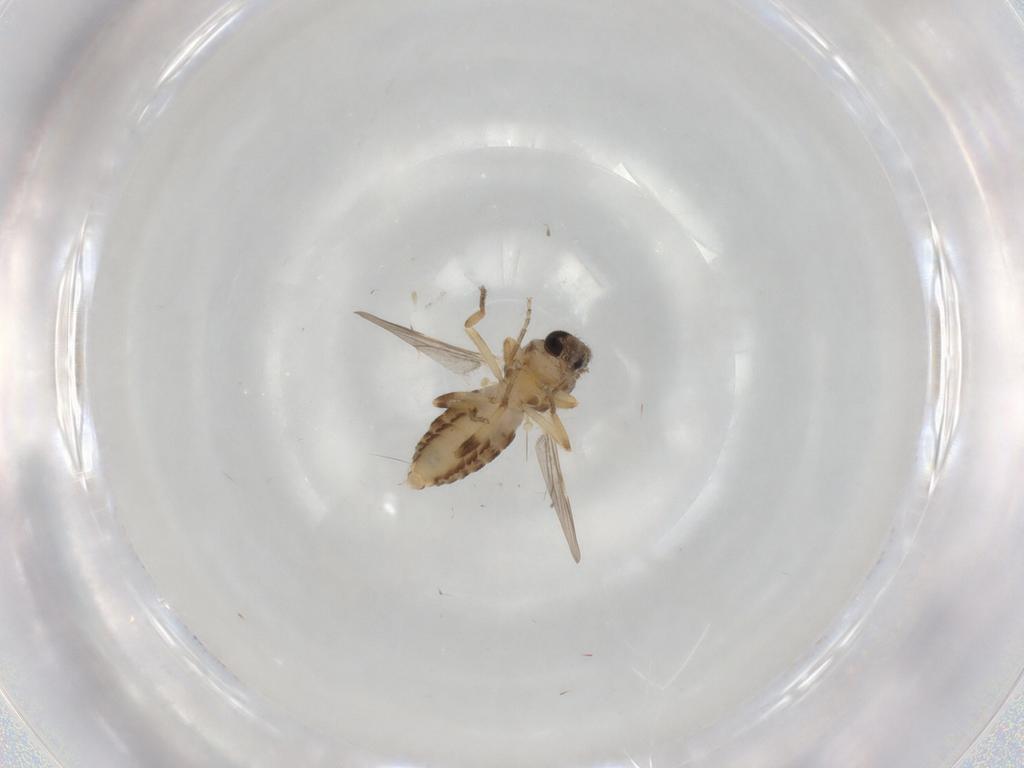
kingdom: Animalia
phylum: Arthropoda
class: Insecta
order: Diptera
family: Ceratopogonidae
